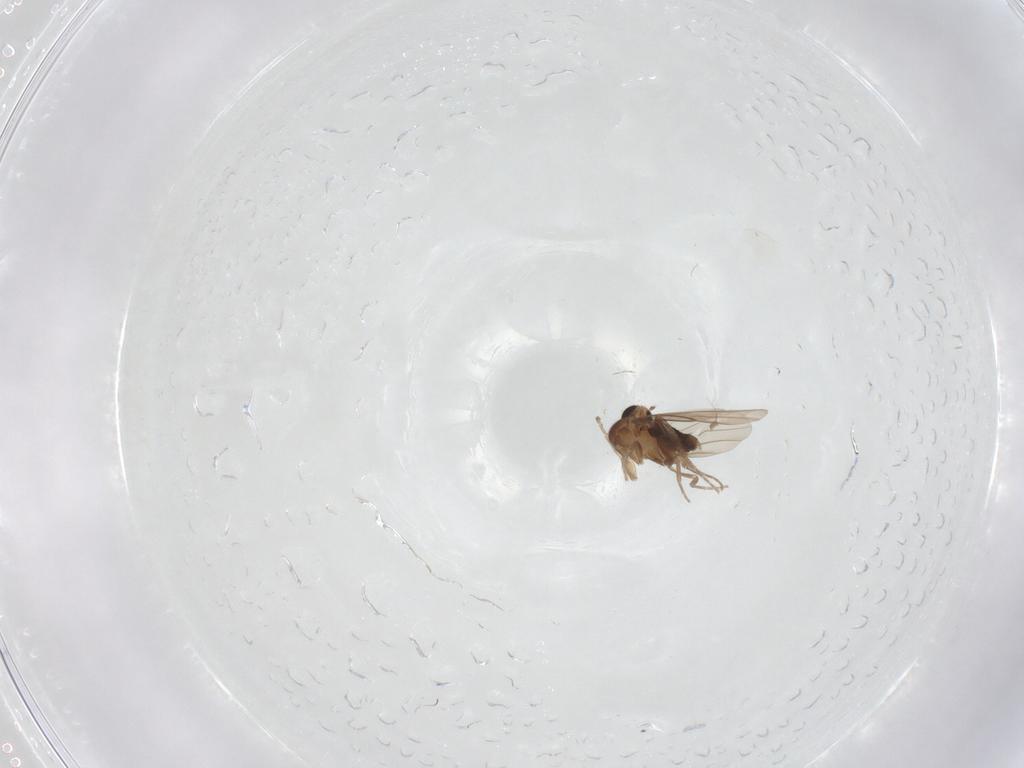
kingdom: Animalia
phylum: Arthropoda
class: Insecta
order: Diptera
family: Phoridae
